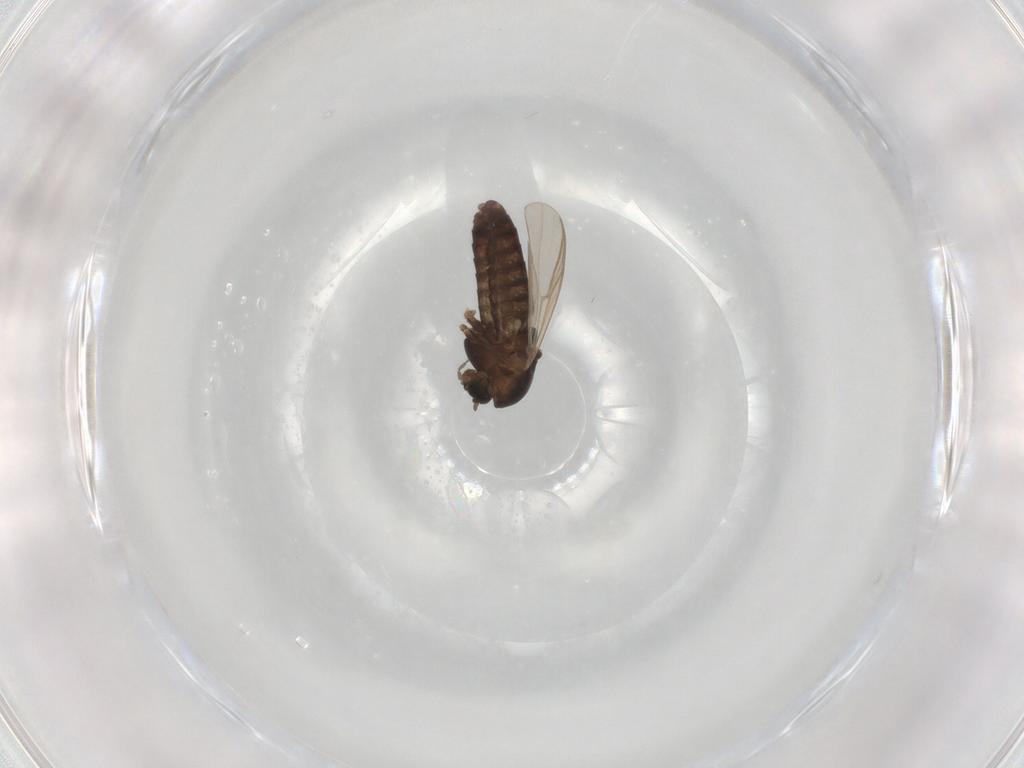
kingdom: Animalia
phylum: Arthropoda
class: Insecta
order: Diptera
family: Chironomidae
